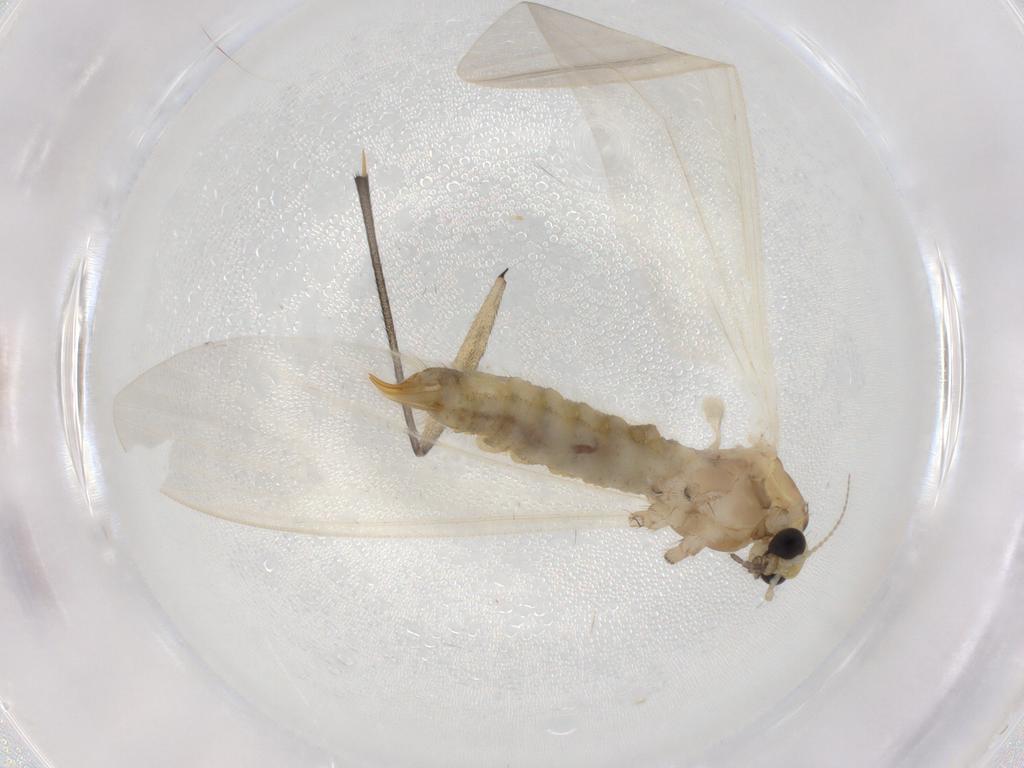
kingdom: Animalia
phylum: Arthropoda
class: Insecta
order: Diptera
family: Limoniidae
